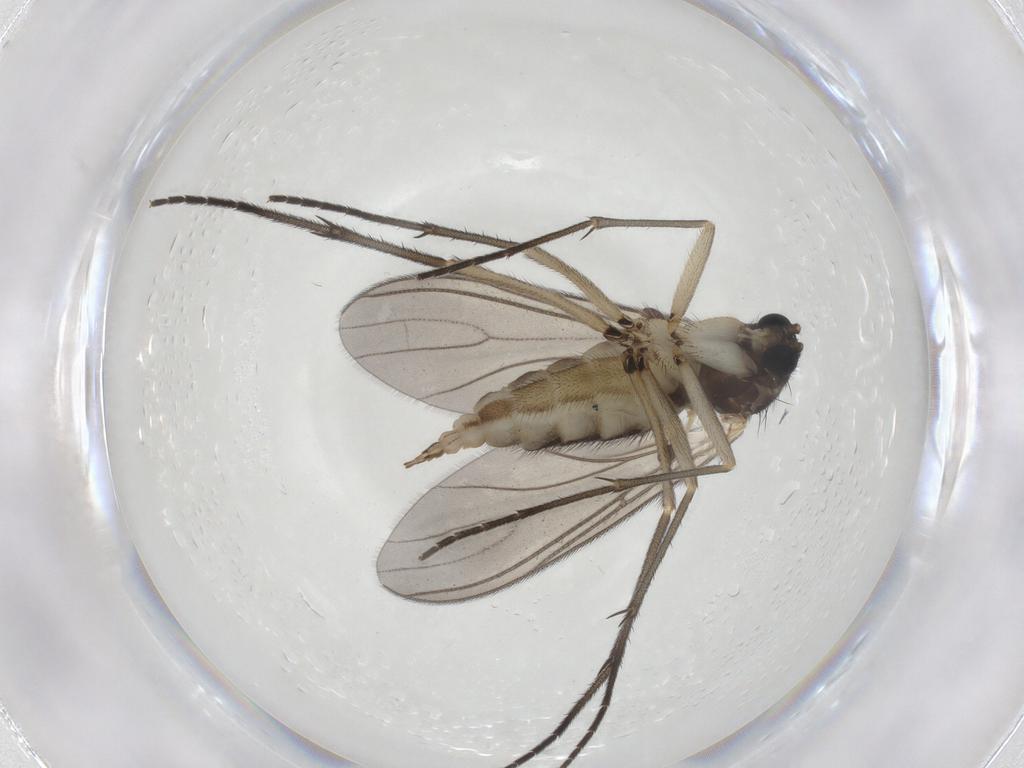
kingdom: Animalia
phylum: Arthropoda
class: Insecta
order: Diptera
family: Sciaridae
